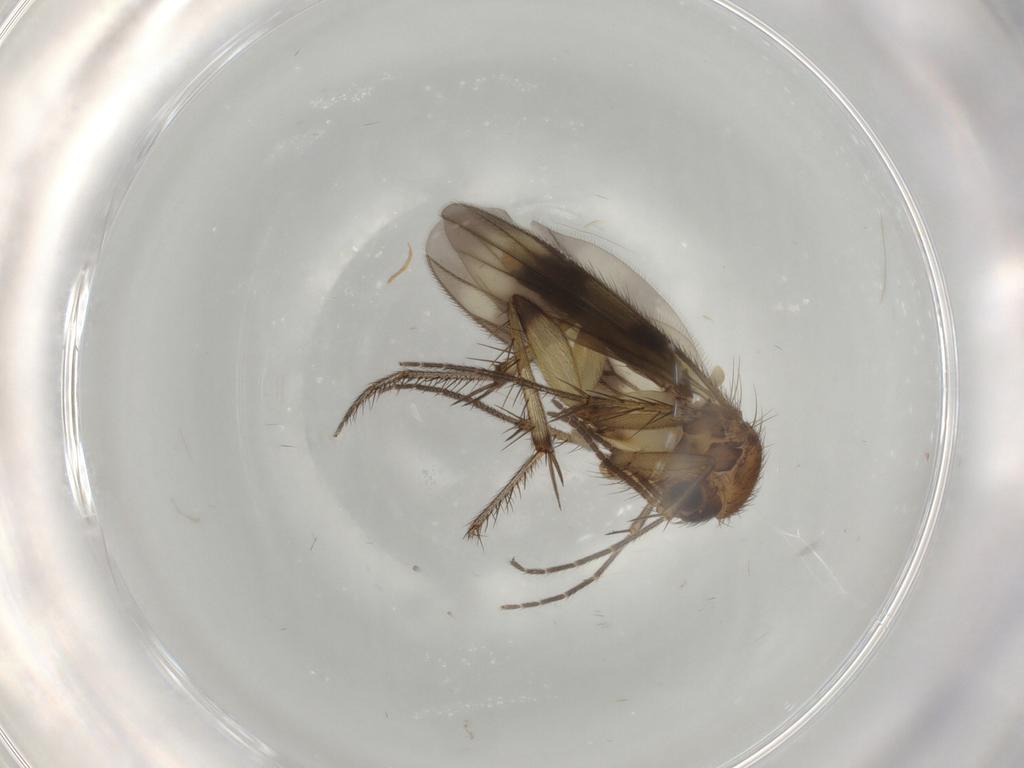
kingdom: Animalia
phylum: Arthropoda
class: Insecta
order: Diptera
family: Mycetophilidae
